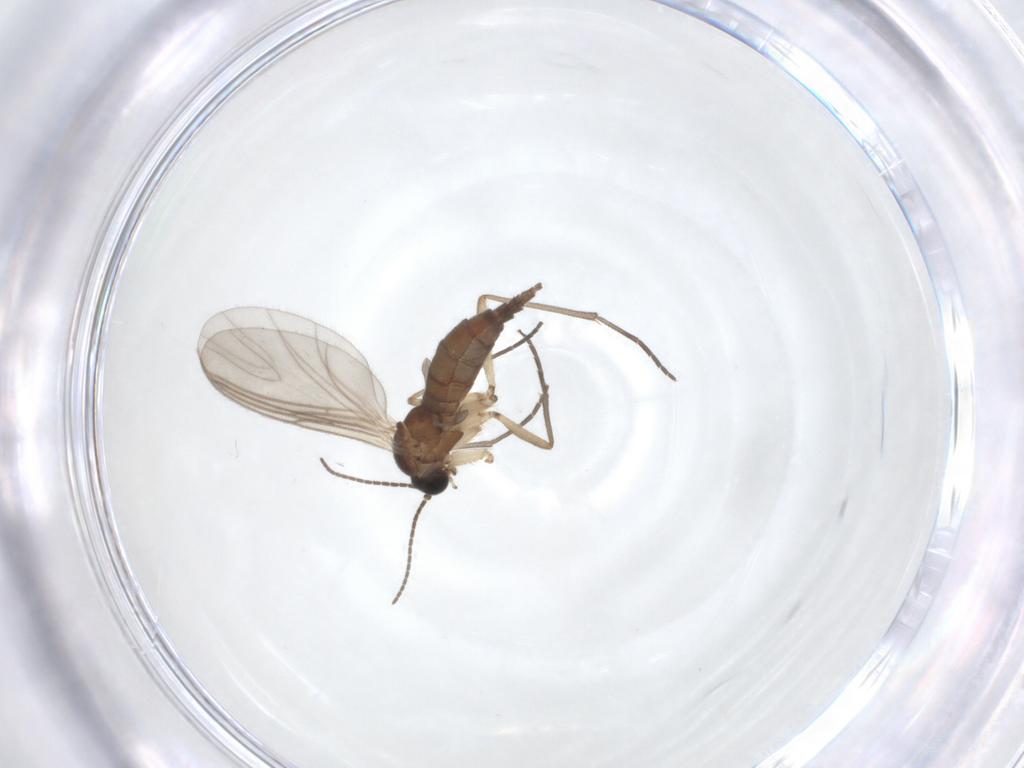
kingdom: Animalia
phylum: Arthropoda
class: Insecta
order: Diptera
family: Sciaridae
